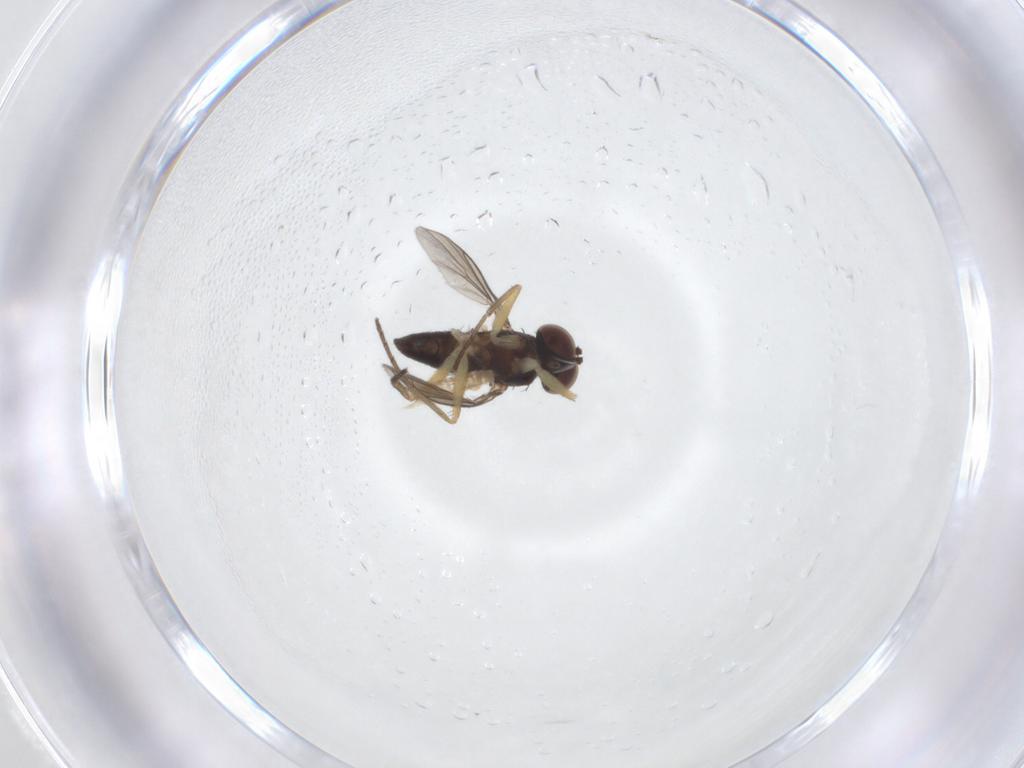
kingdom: Animalia
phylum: Arthropoda
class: Insecta
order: Diptera
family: Dolichopodidae
